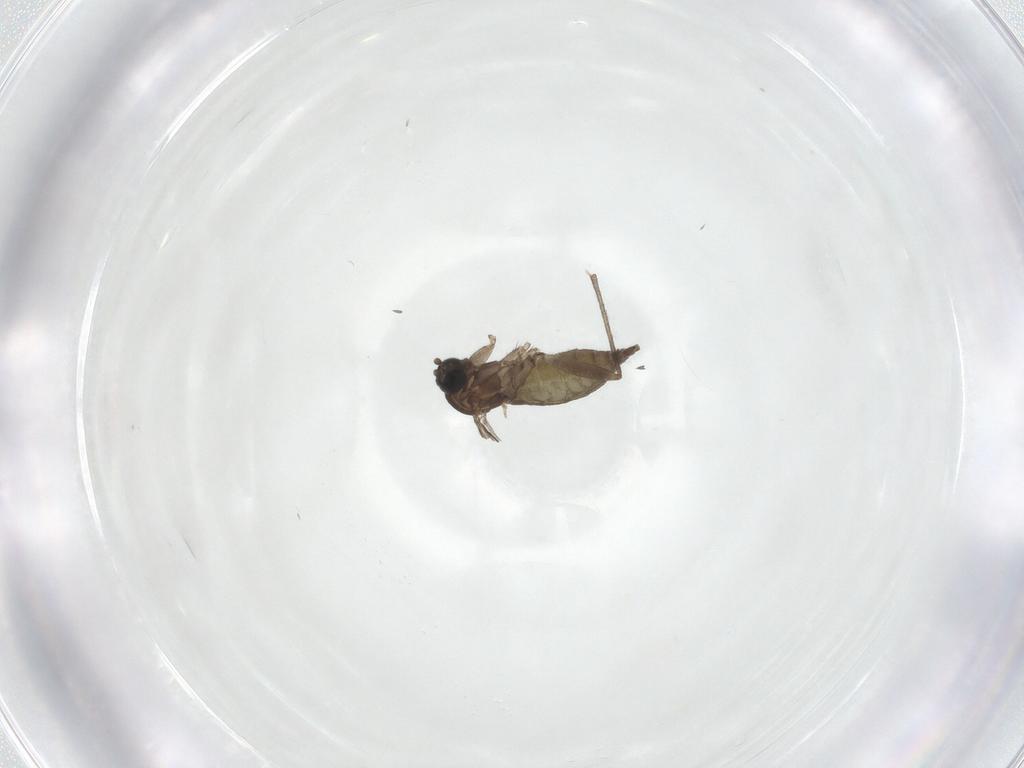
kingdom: Animalia
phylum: Arthropoda
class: Insecta
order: Diptera
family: Sciaridae
